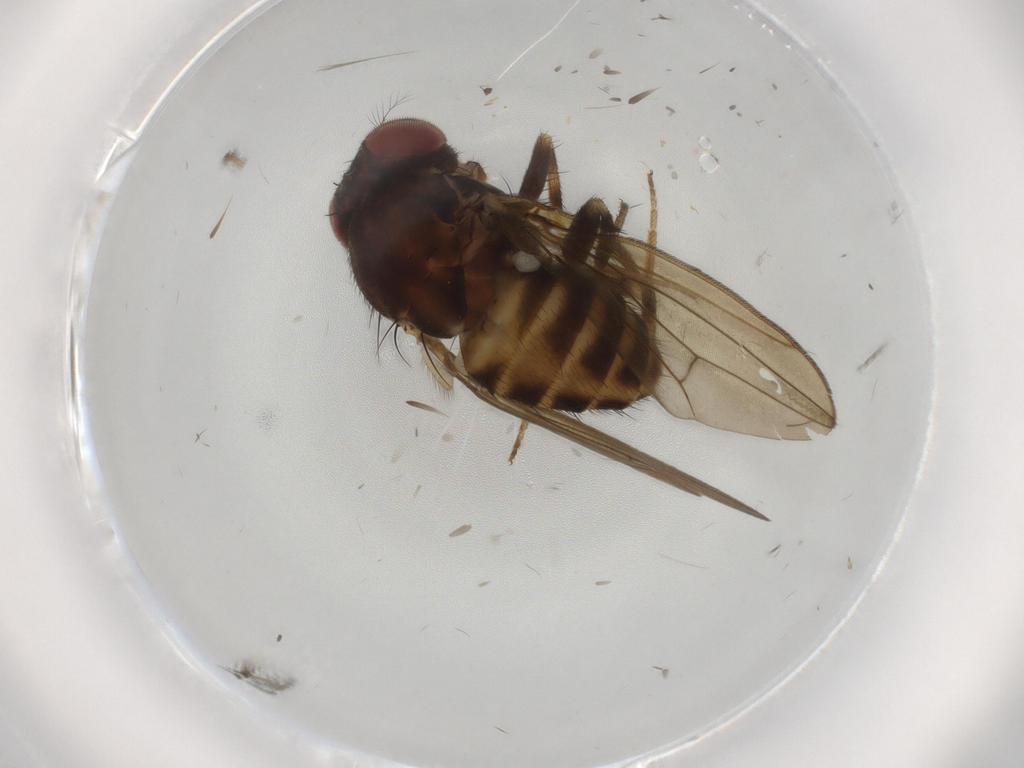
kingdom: Animalia
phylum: Arthropoda
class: Insecta
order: Diptera
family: Drosophilidae
